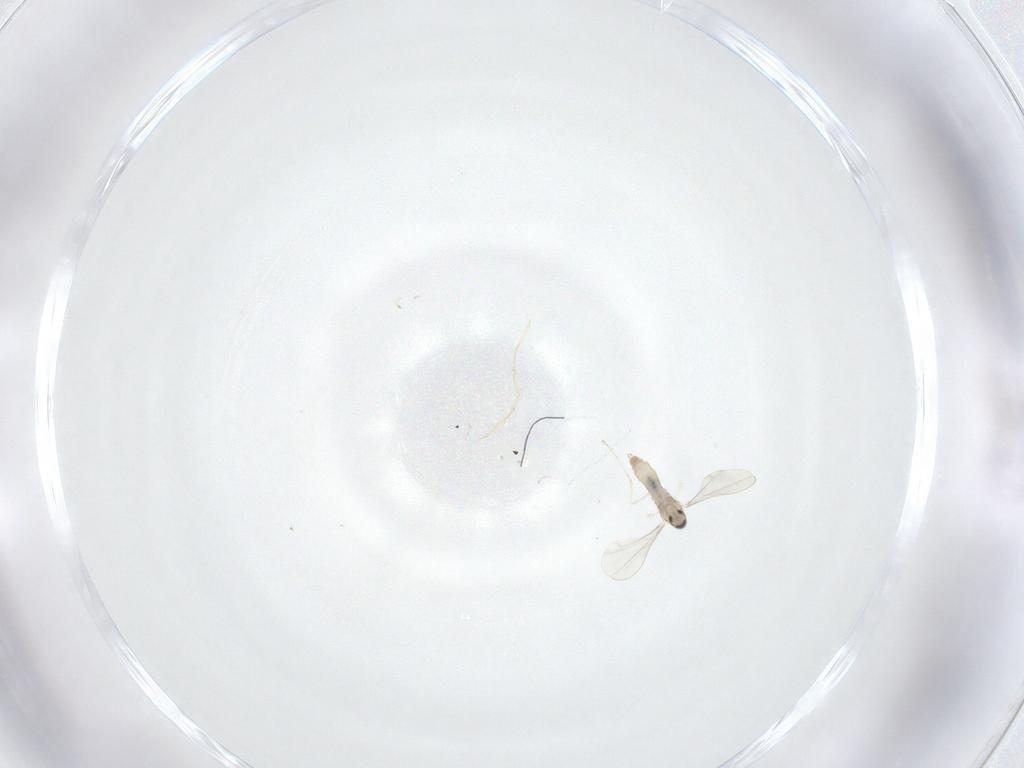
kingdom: Animalia
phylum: Arthropoda
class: Insecta
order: Diptera
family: Cecidomyiidae
